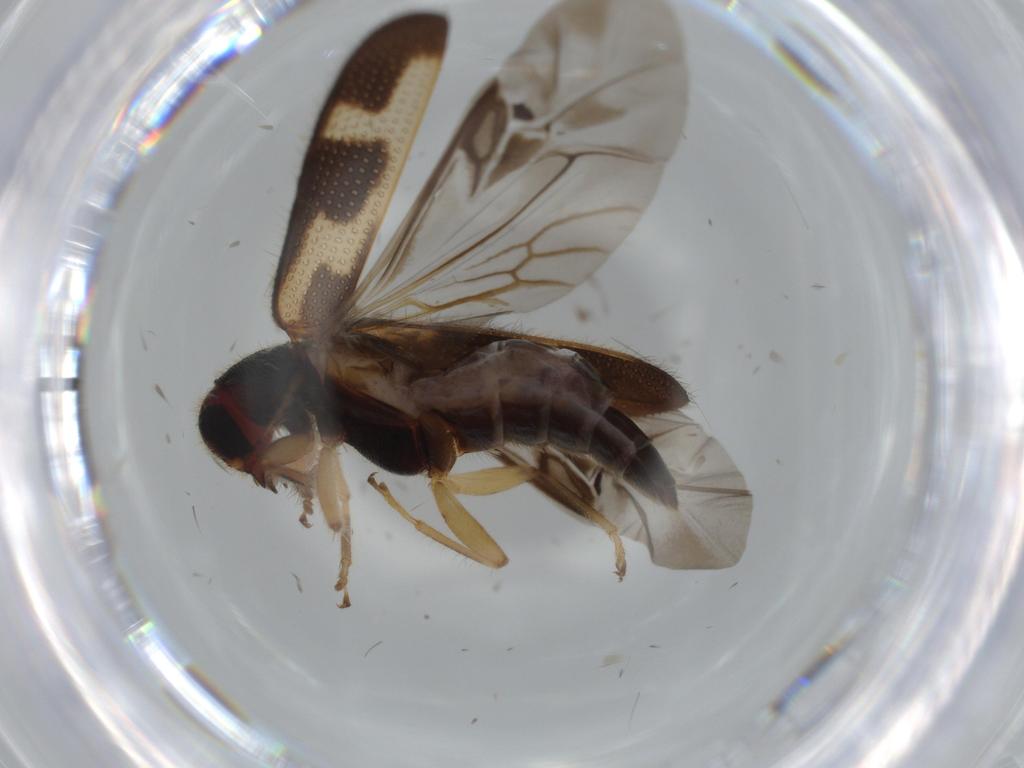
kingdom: Animalia
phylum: Arthropoda
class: Insecta
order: Coleoptera
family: Cleridae
